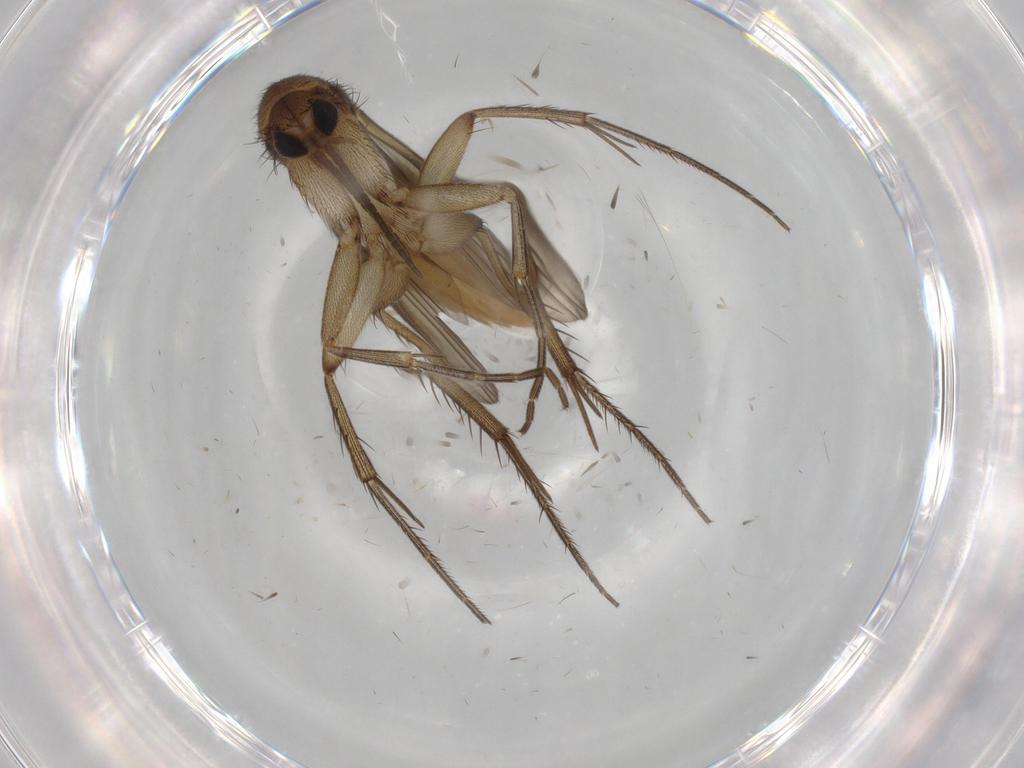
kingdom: Animalia
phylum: Arthropoda
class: Insecta
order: Diptera
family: Mycetophilidae
